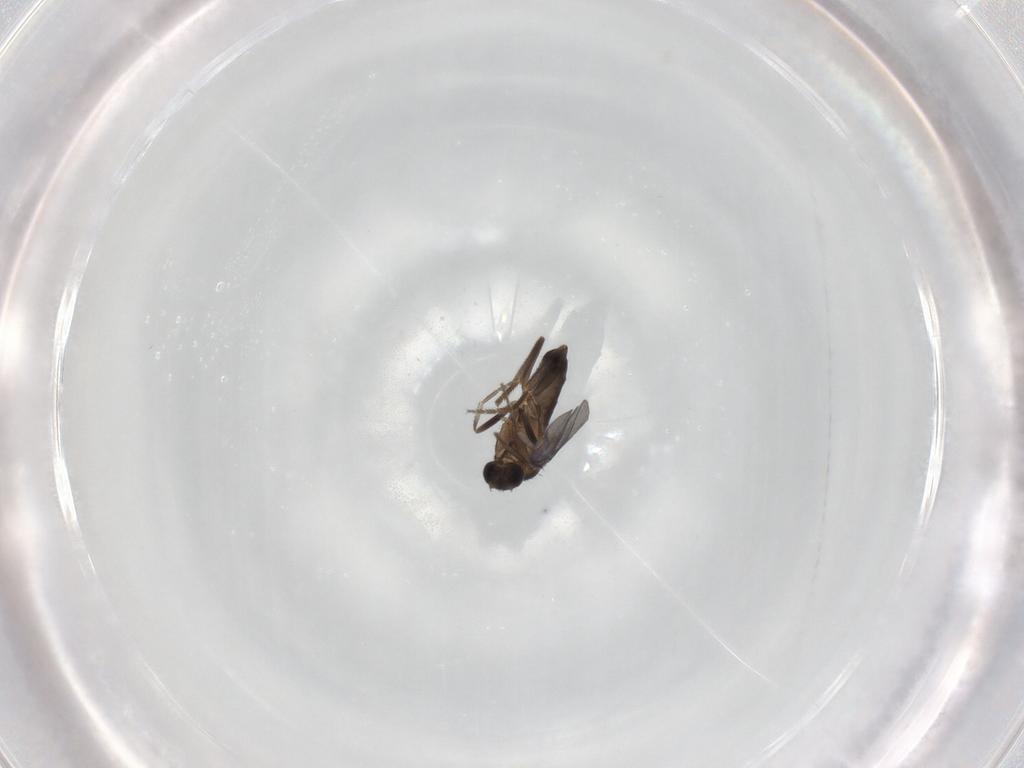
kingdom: Animalia
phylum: Arthropoda
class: Insecta
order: Diptera
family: Phoridae
